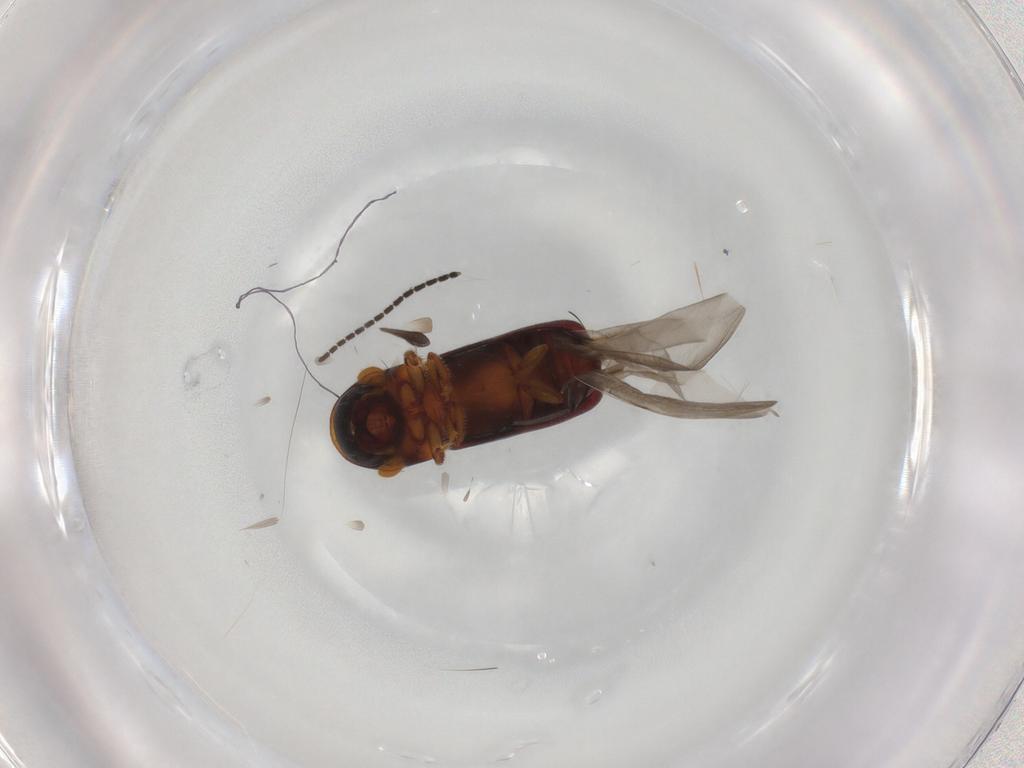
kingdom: Animalia
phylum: Arthropoda
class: Insecta
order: Coleoptera
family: Curculionidae
